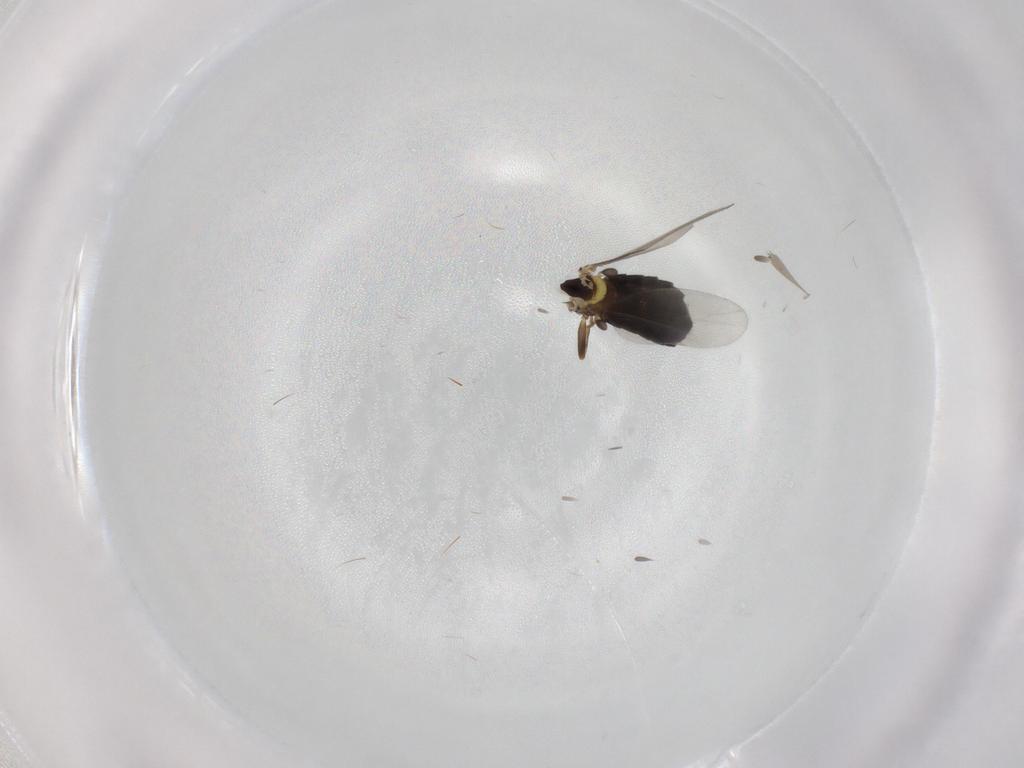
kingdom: Animalia
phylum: Arthropoda
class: Insecta
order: Diptera
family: Scatopsidae
